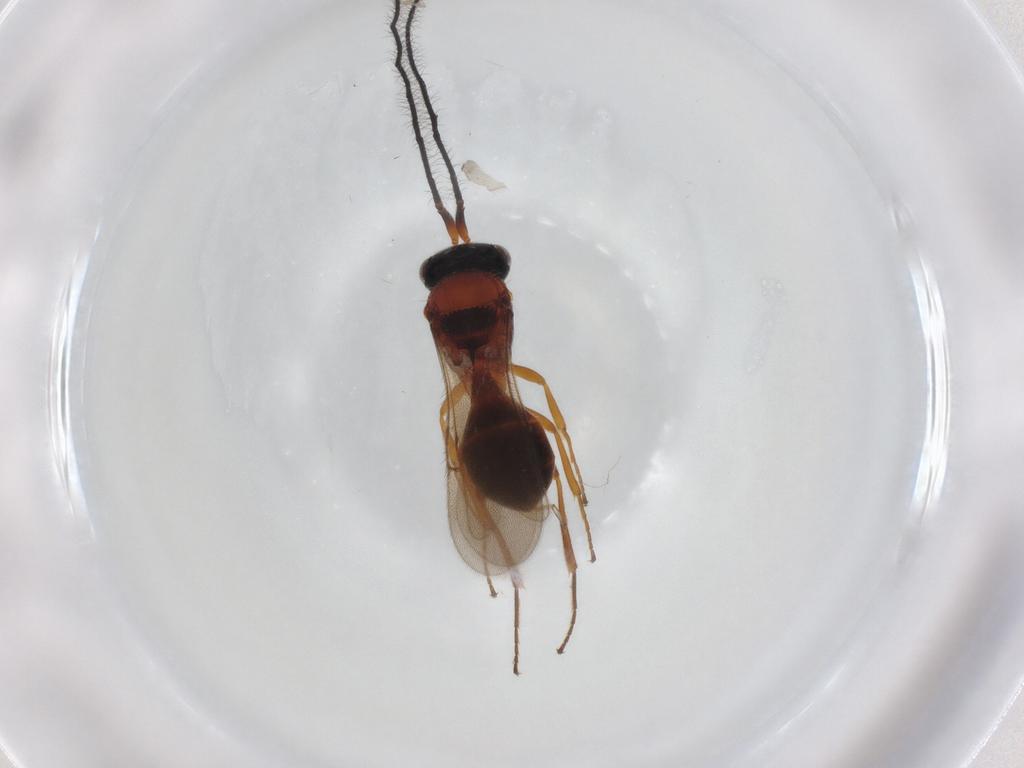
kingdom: Animalia
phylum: Arthropoda
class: Insecta
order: Hymenoptera
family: Scelionidae
